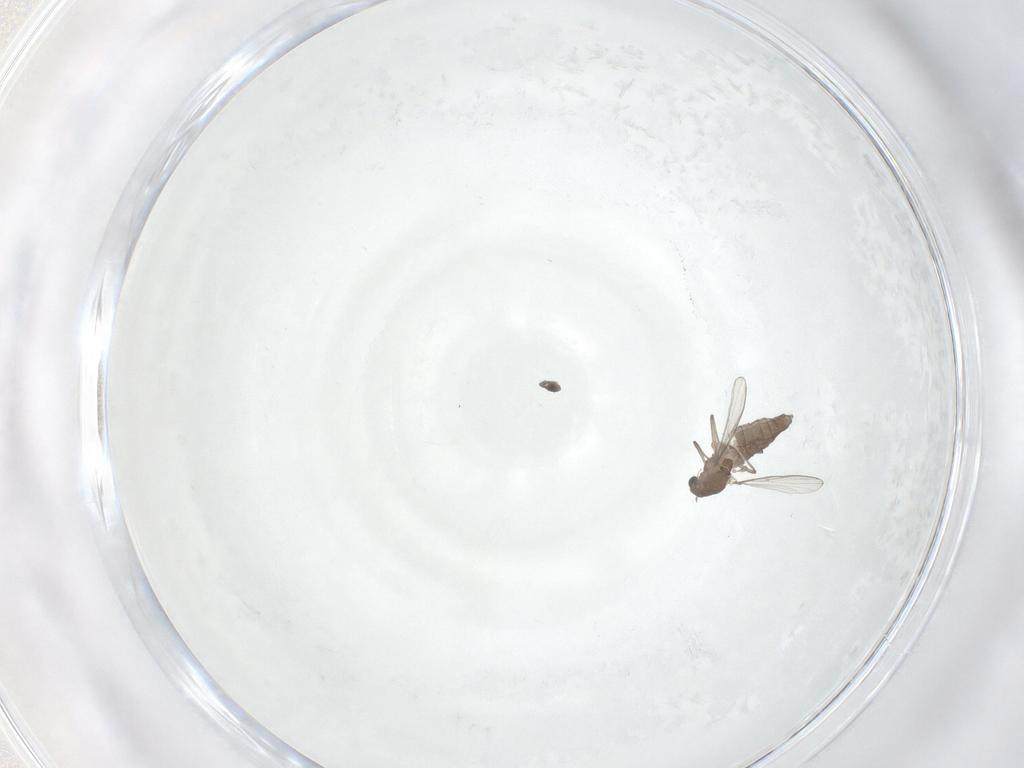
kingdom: Animalia
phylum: Arthropoda
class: Insecta
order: Diptera
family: Chironomidae
